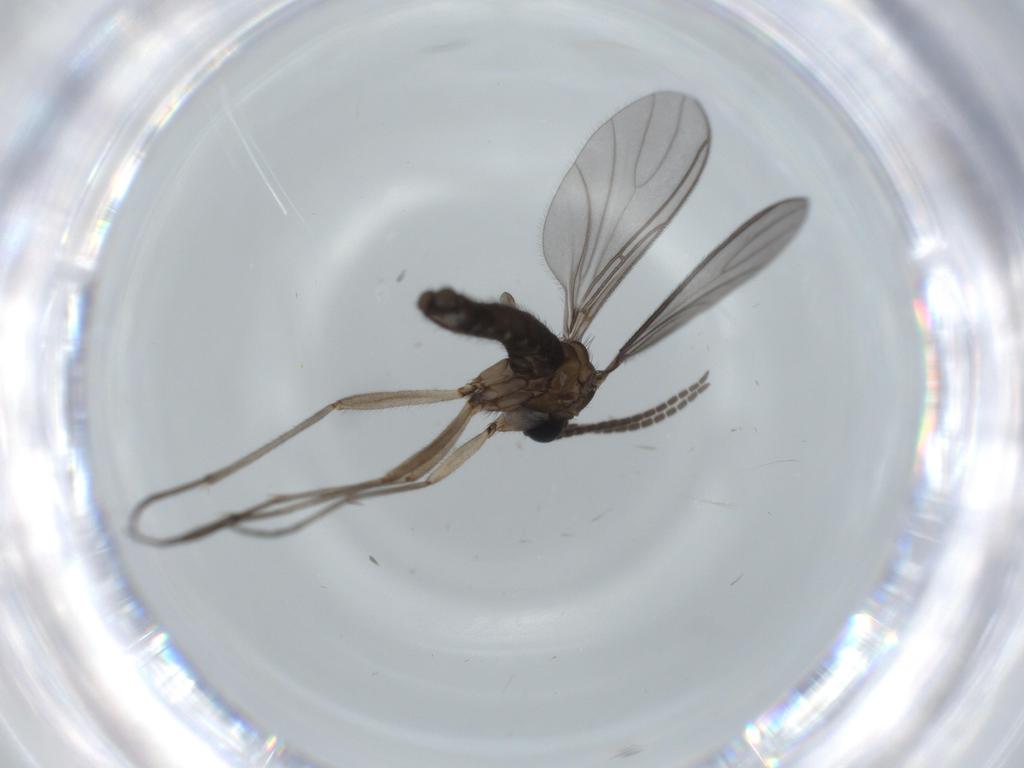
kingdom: Animalia
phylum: Arthropoda
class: Insecta
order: Diptera
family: Sciaridae
